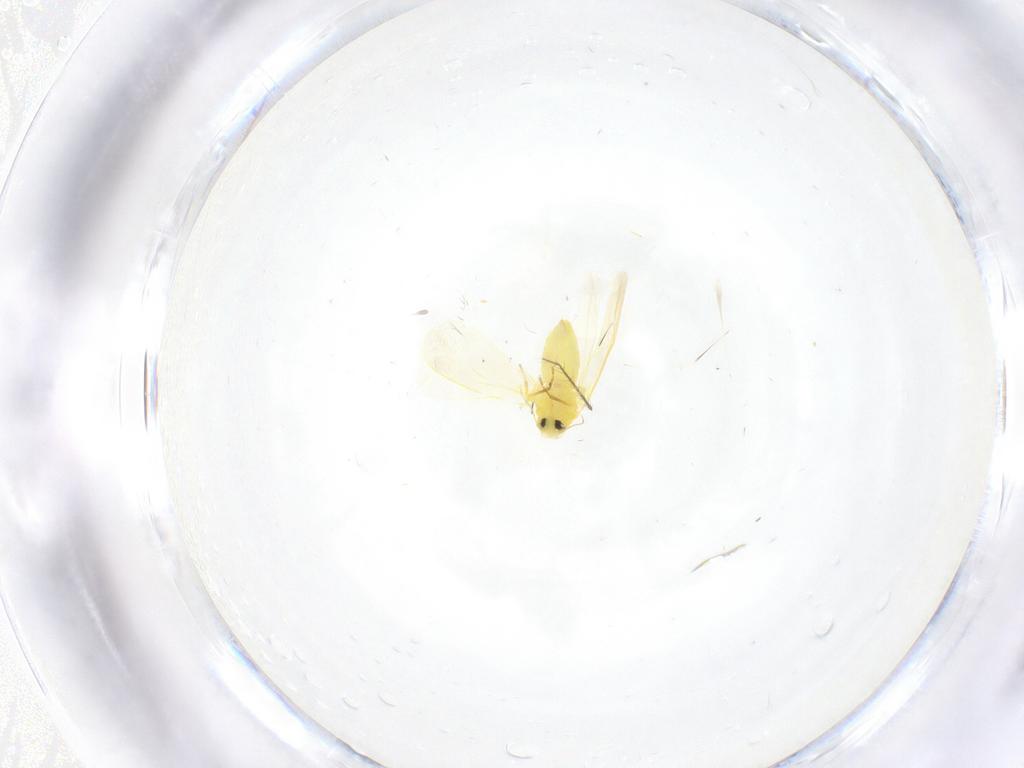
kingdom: Animalia
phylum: Arthropoda
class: Insecta
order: Hemiptera
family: Aleyrodidae
